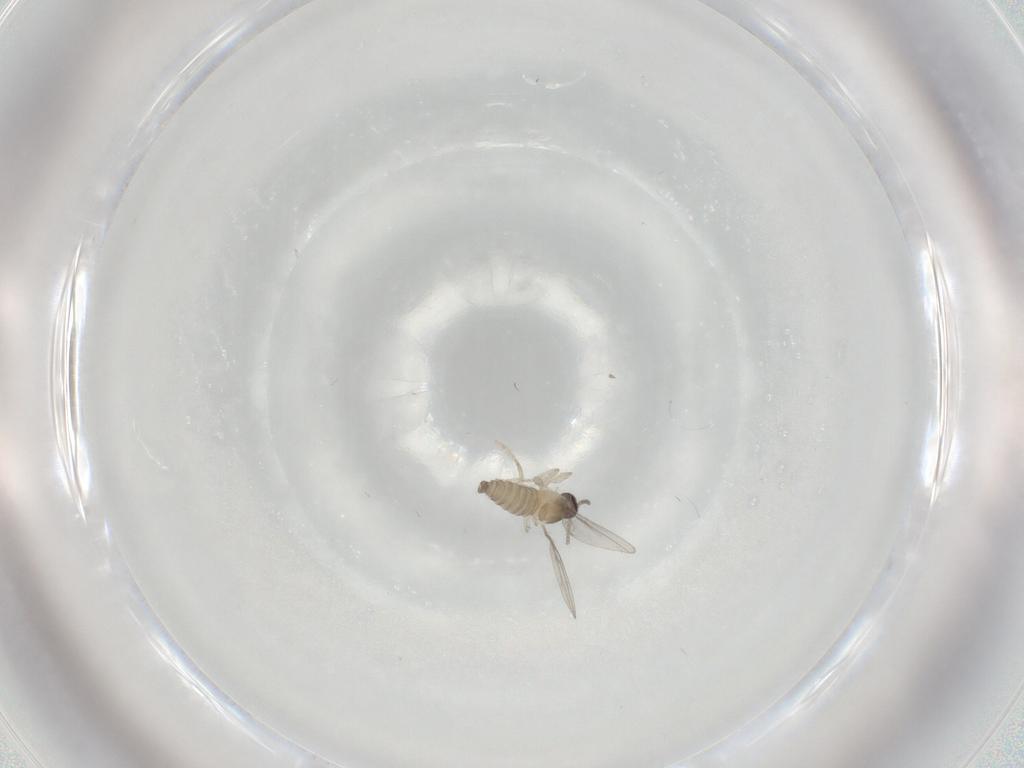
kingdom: Animalia
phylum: Arthropoda
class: Insecta
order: Diptera
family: Cecidomyiidae
